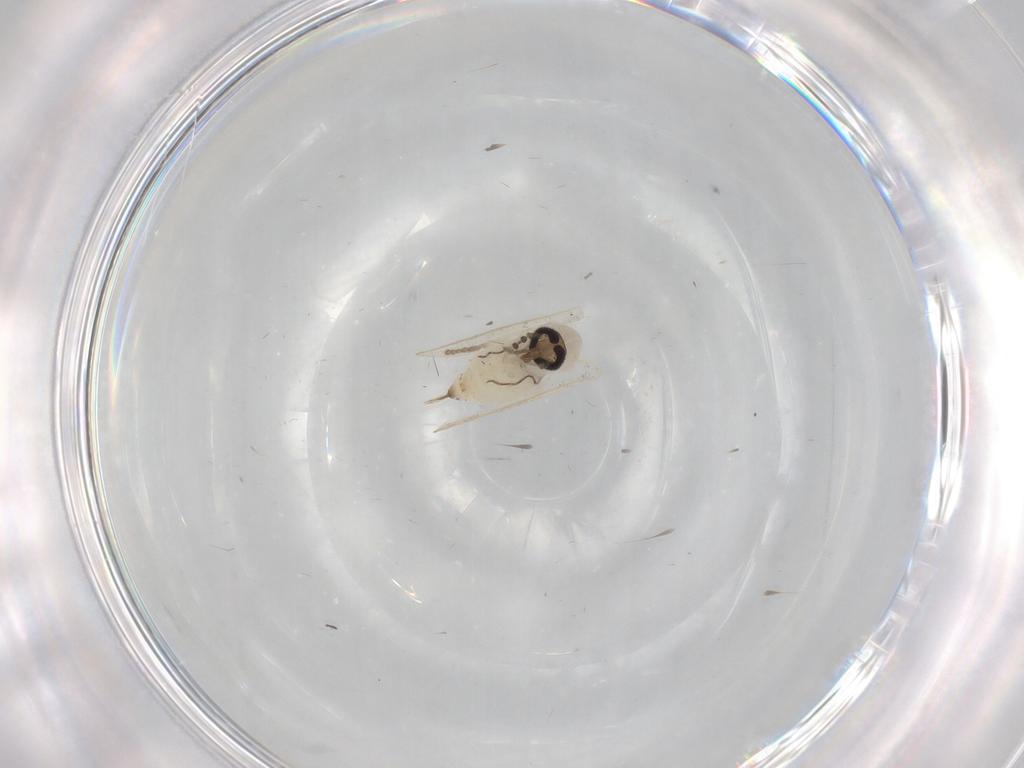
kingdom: Animalia
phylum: Arthropoda
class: Insecta
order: Diptera
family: Psychodidae
